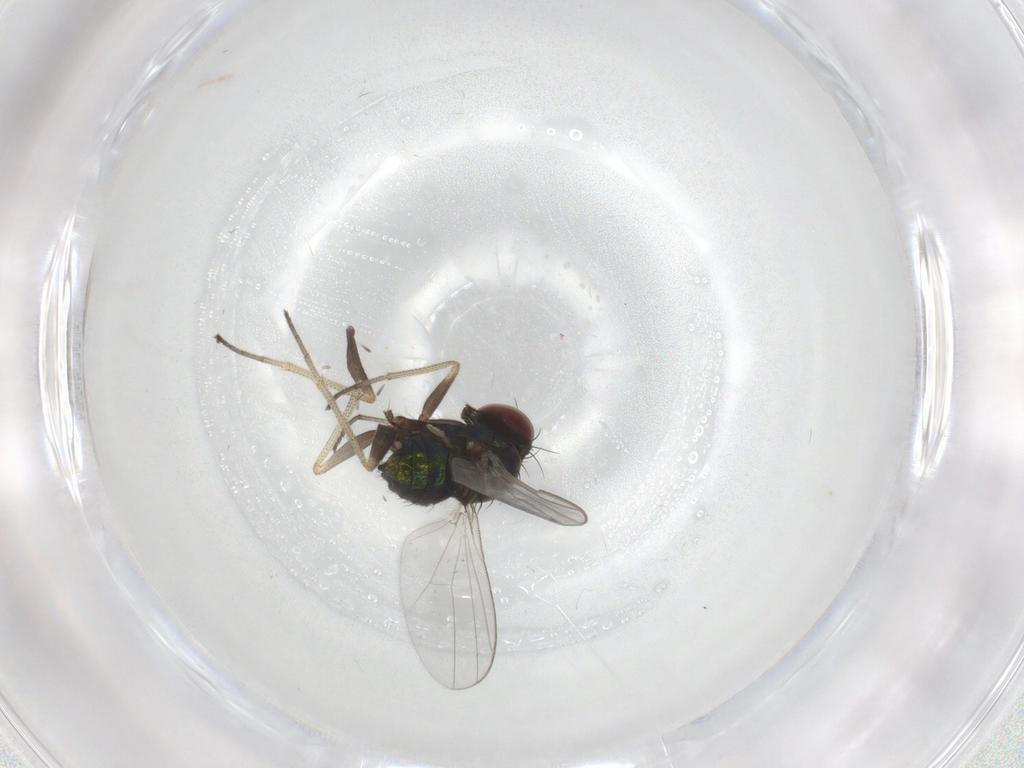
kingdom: Animalia
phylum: Arthropoda
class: Insecta
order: Diptera
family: Dolichopodidae
